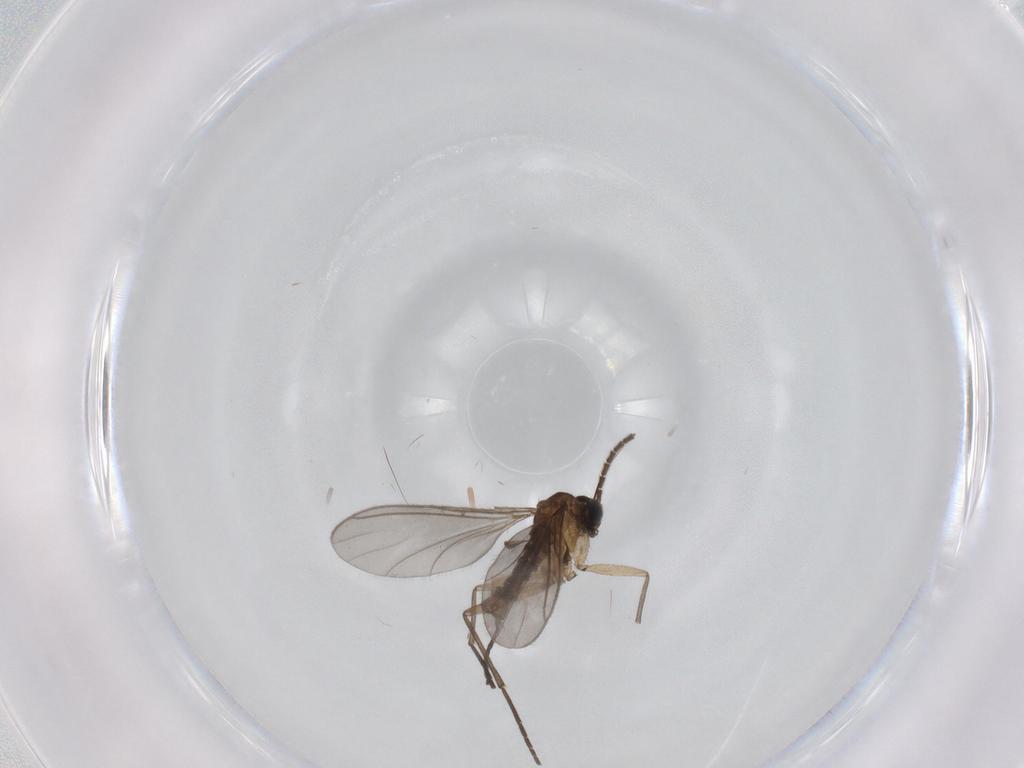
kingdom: Animalia
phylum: Arthropoda
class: Insecta
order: Diptera
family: Sciaridae
